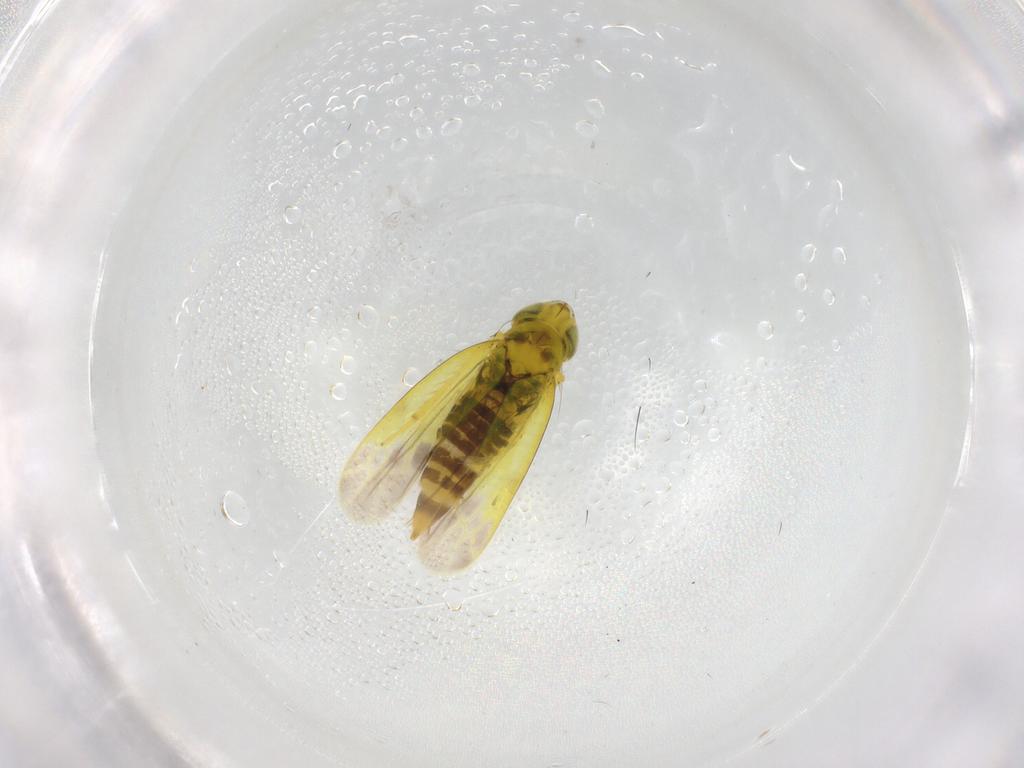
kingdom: Animalia
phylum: Arthropoda
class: Insecta
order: Hemiptera
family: Cicadellidae
